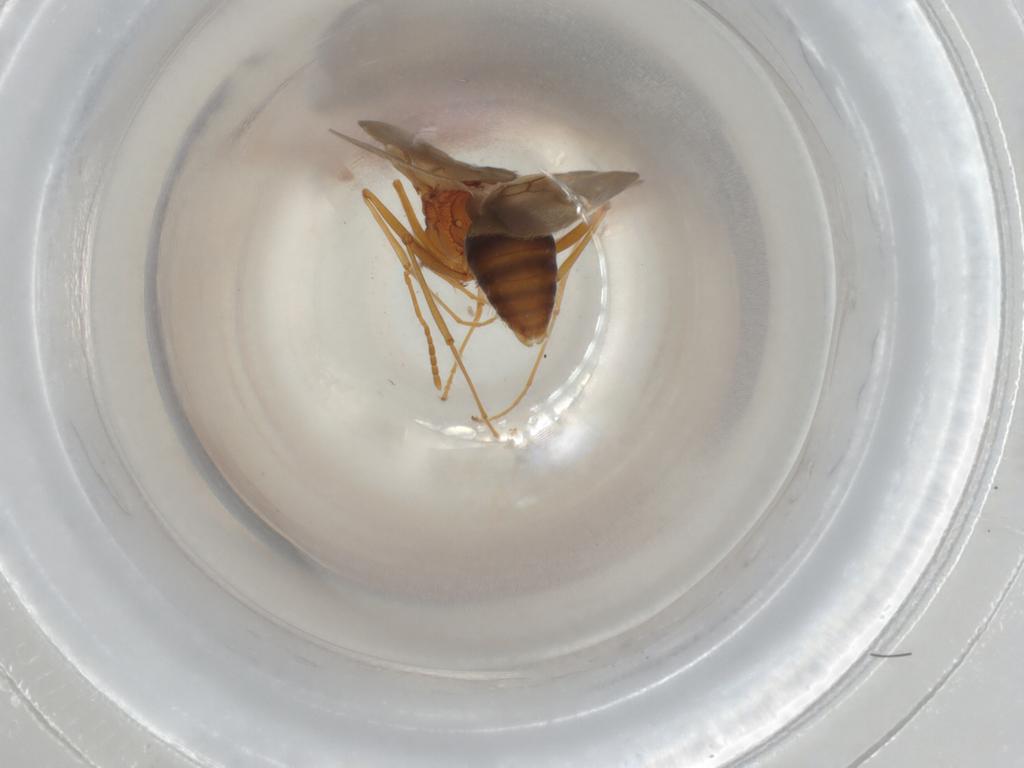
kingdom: Animalia
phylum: Arthropoda
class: Insecta
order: Hymenoptera
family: Formicidae
